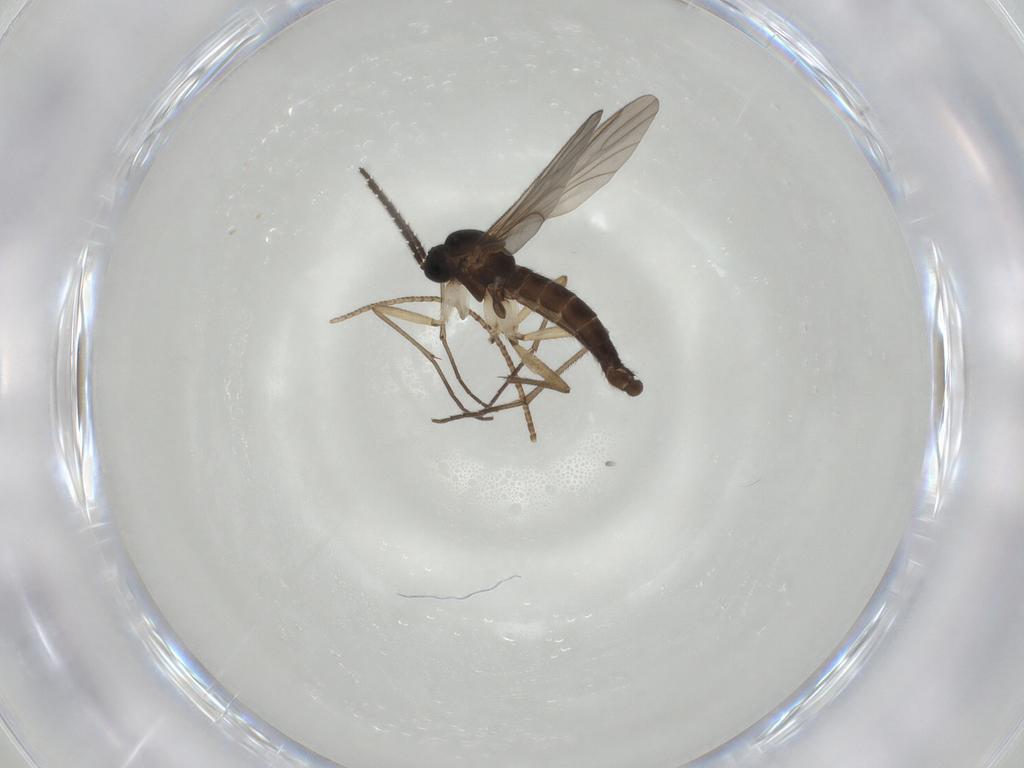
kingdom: Animalia
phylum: Arthropoda
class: Insecta
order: Diptera
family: Sciaridae
